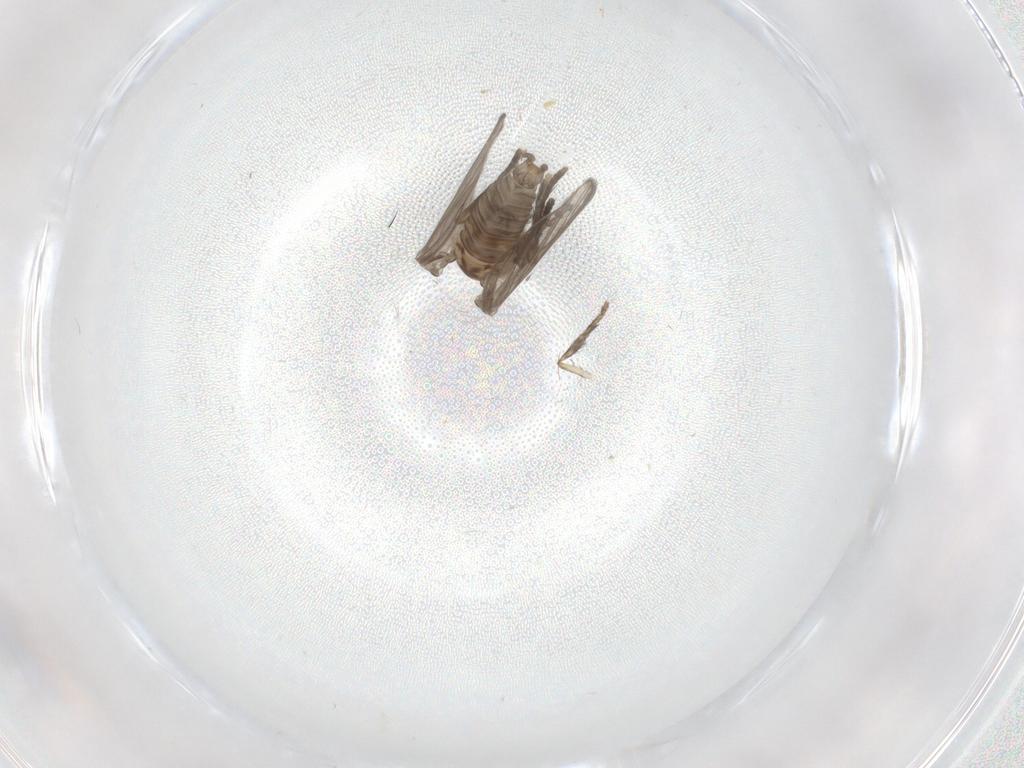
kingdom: Animalia
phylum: Arthropoda
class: Insecta
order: Diptera
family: Psychodidae
